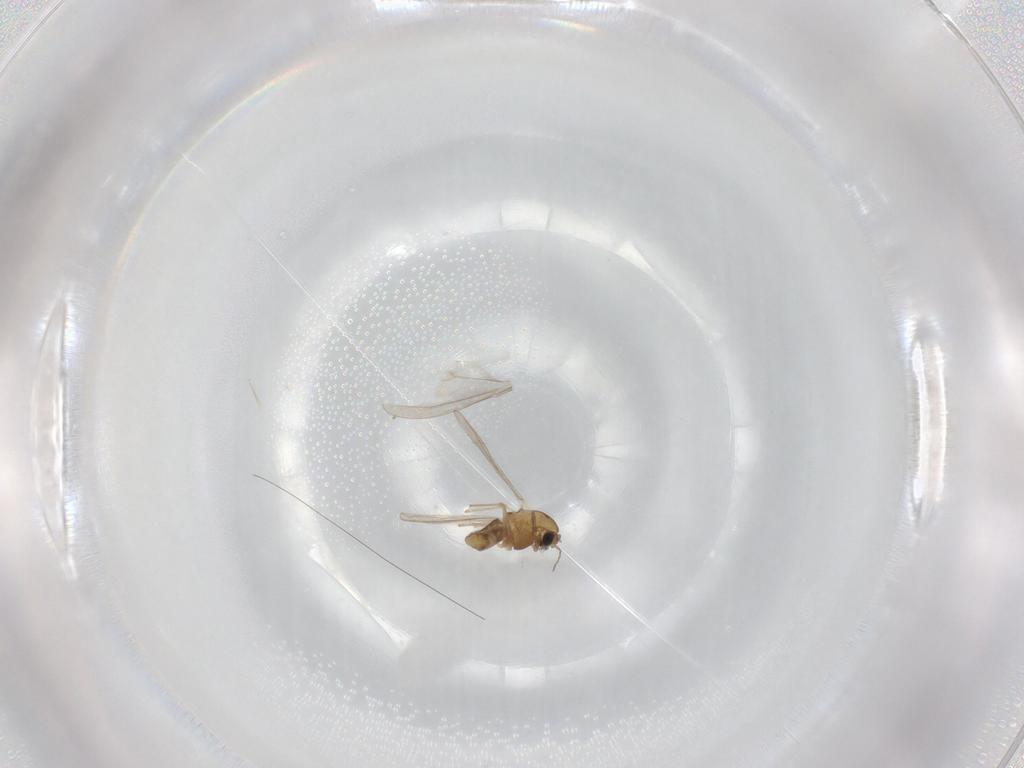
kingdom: Animalia
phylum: Arthropoda
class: Insecta
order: Diptera
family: Chironomidae
